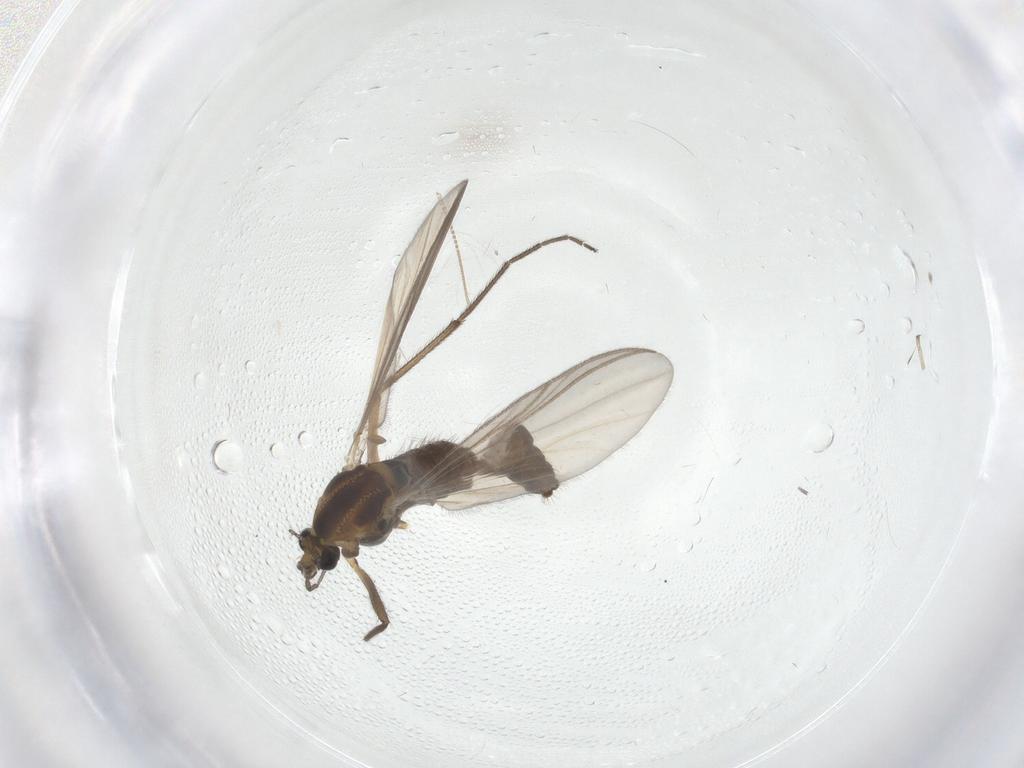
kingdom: Animalia
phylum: Arthropoda
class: Insecta
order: Diptera
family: Chironomidae
